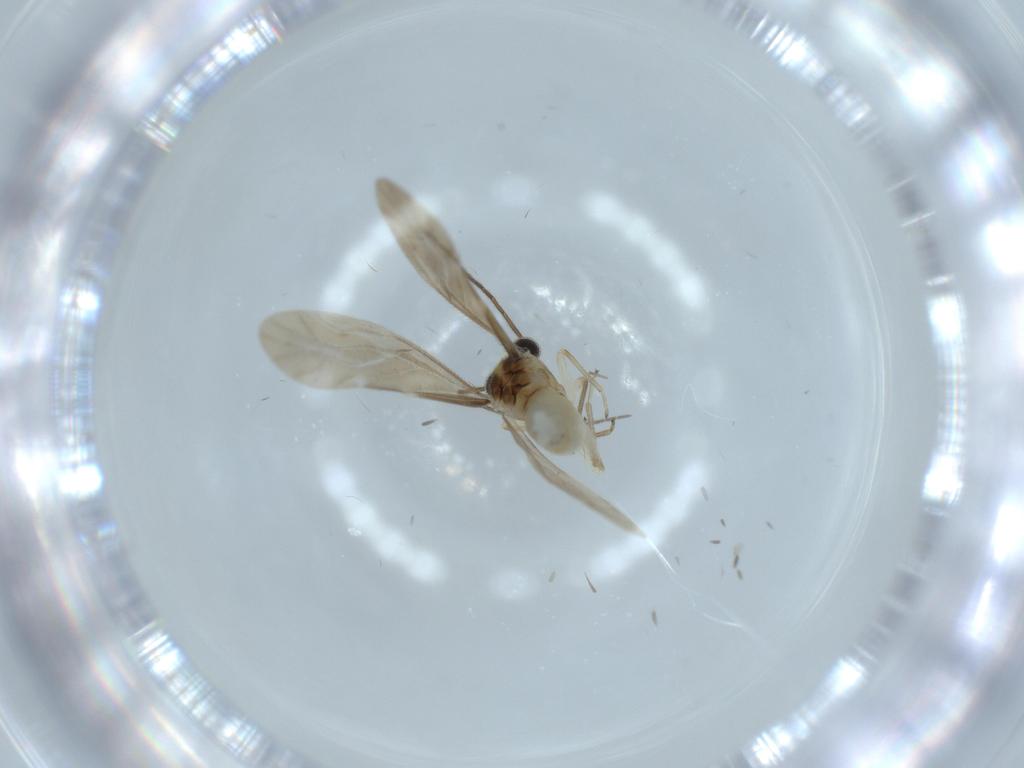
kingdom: Animalia
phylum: Arthropoda
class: Insecta
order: Psocodea
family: Caeciliusidae
